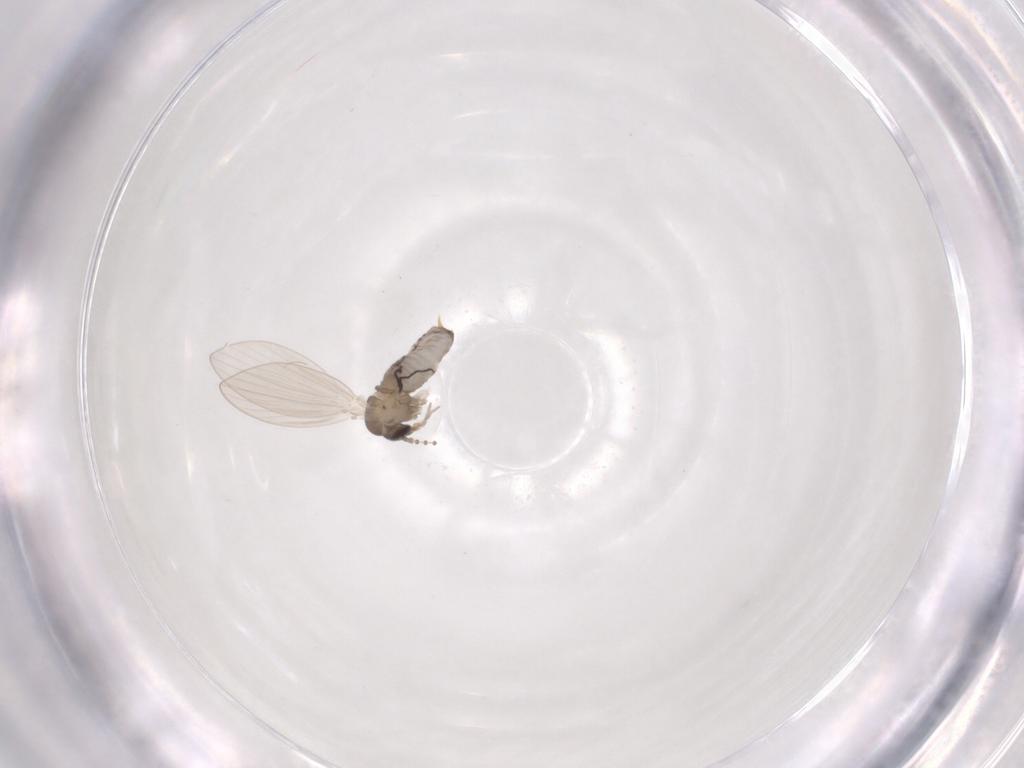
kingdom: Animalia
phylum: Arthropoda
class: Insecta
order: Diptera
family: Psychodidae
